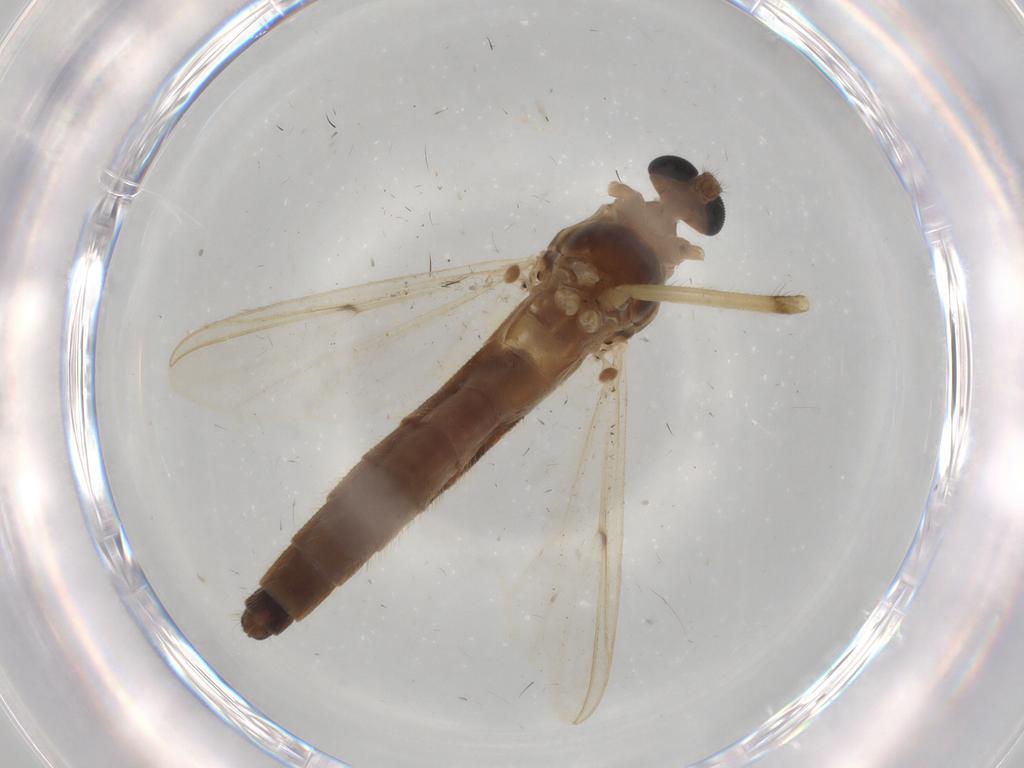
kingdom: Animalia
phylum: Arthropoda
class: Insecta
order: Diptera
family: Chironomidae
